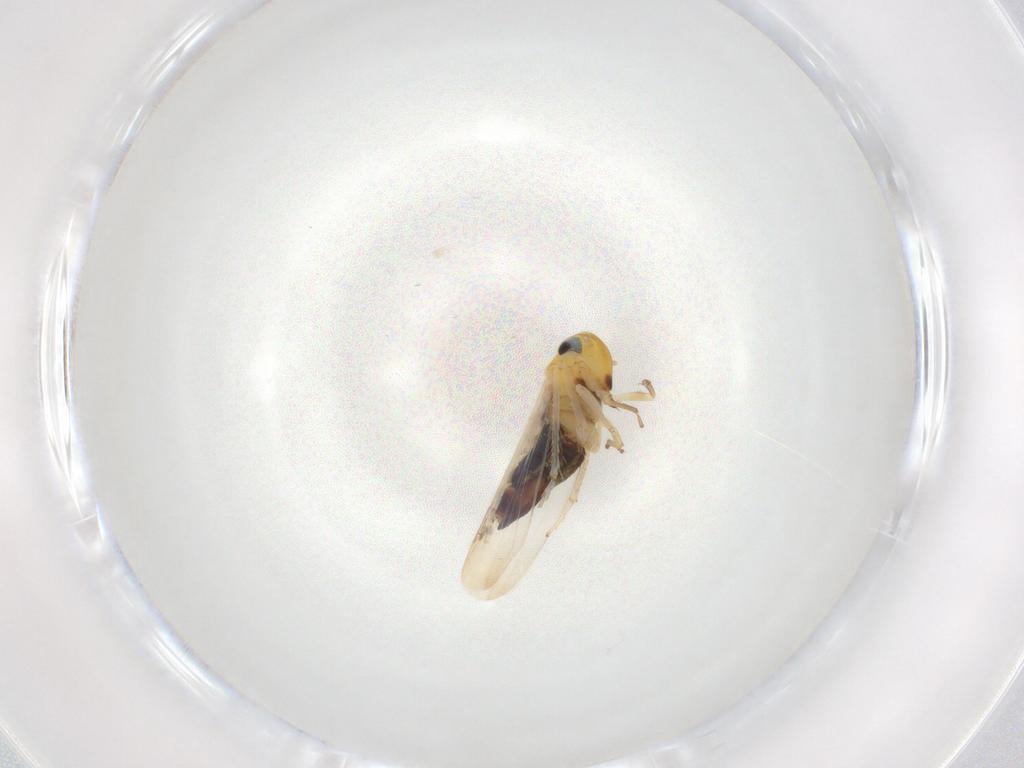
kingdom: Animalia
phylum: Arthropoda
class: Insecta
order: Hemiptera
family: Cicadellidae
